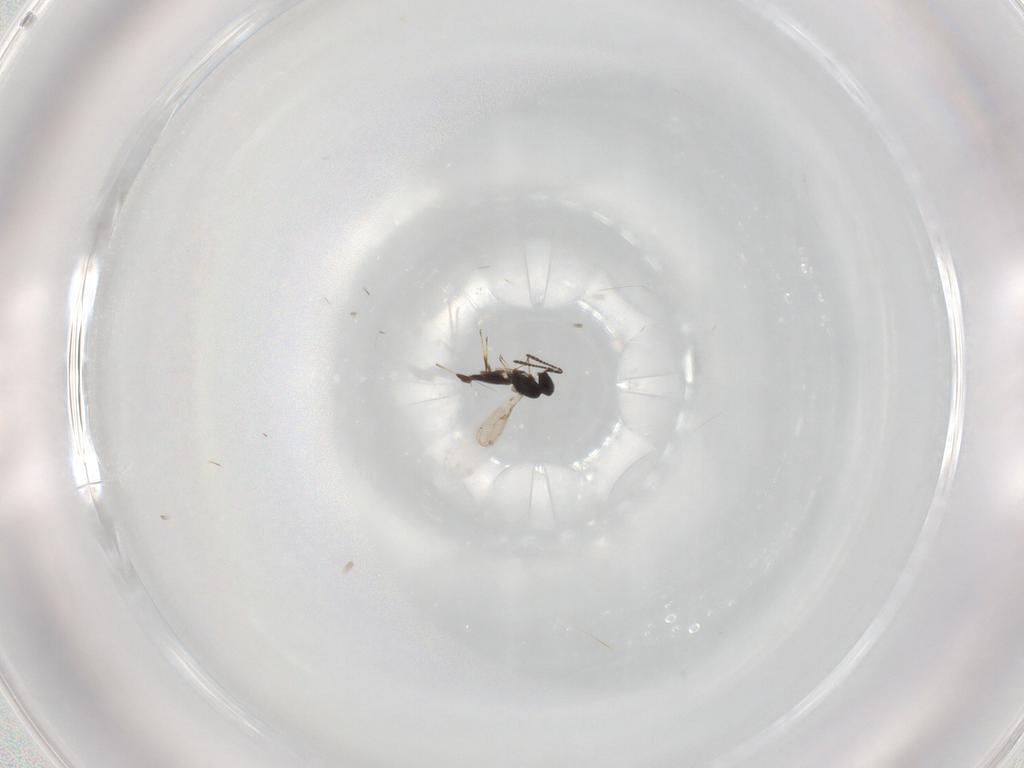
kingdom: Animalia
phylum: Arthropoda
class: Insecta
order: Hymenoptera
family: Scelionidae
